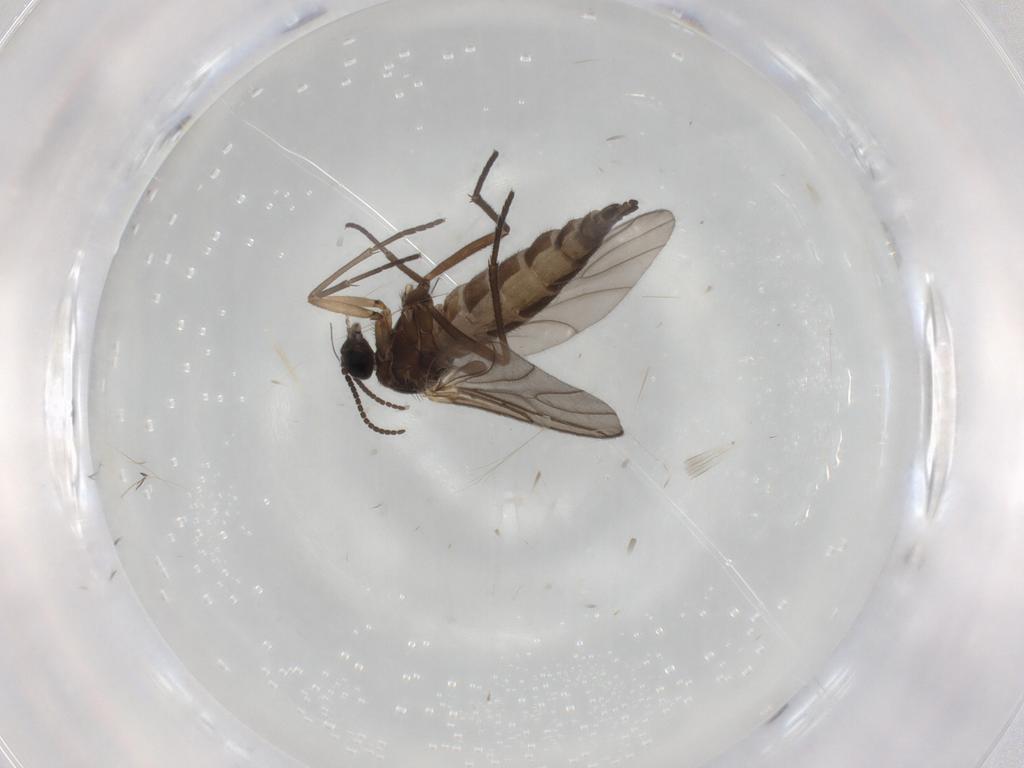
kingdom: Animalia
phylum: Arthropoda
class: Insecta
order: Diptera
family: Sciaridae
